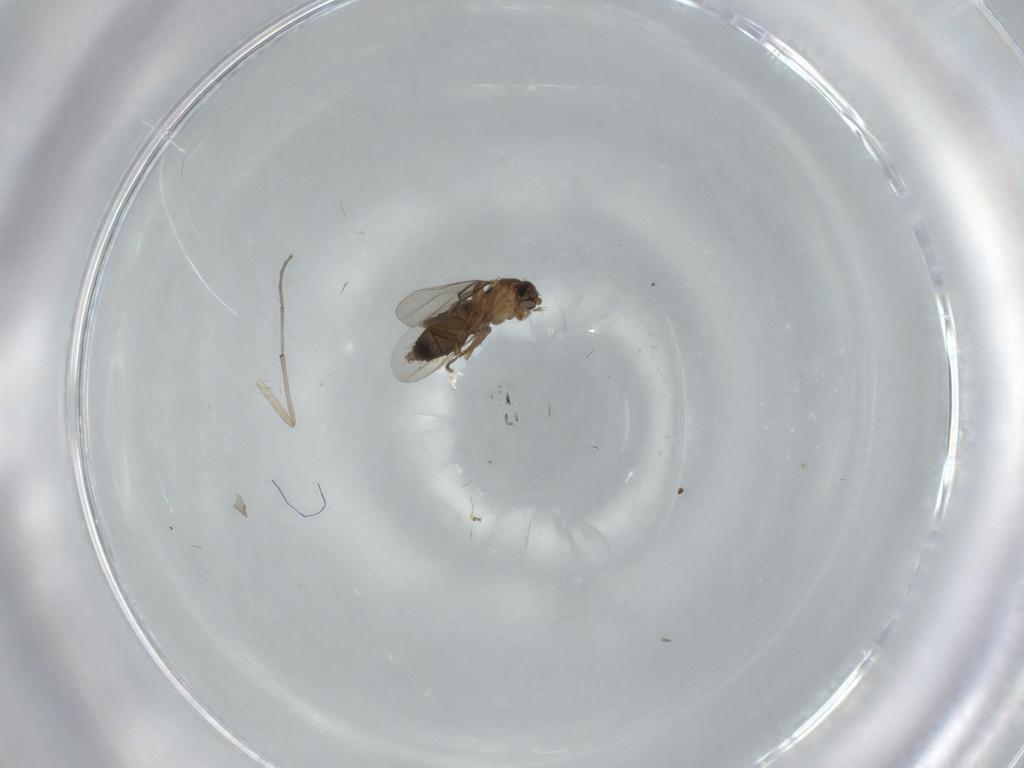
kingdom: Animalia
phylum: Arthropoda
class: Insecta
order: Diptera
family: Phoridae
